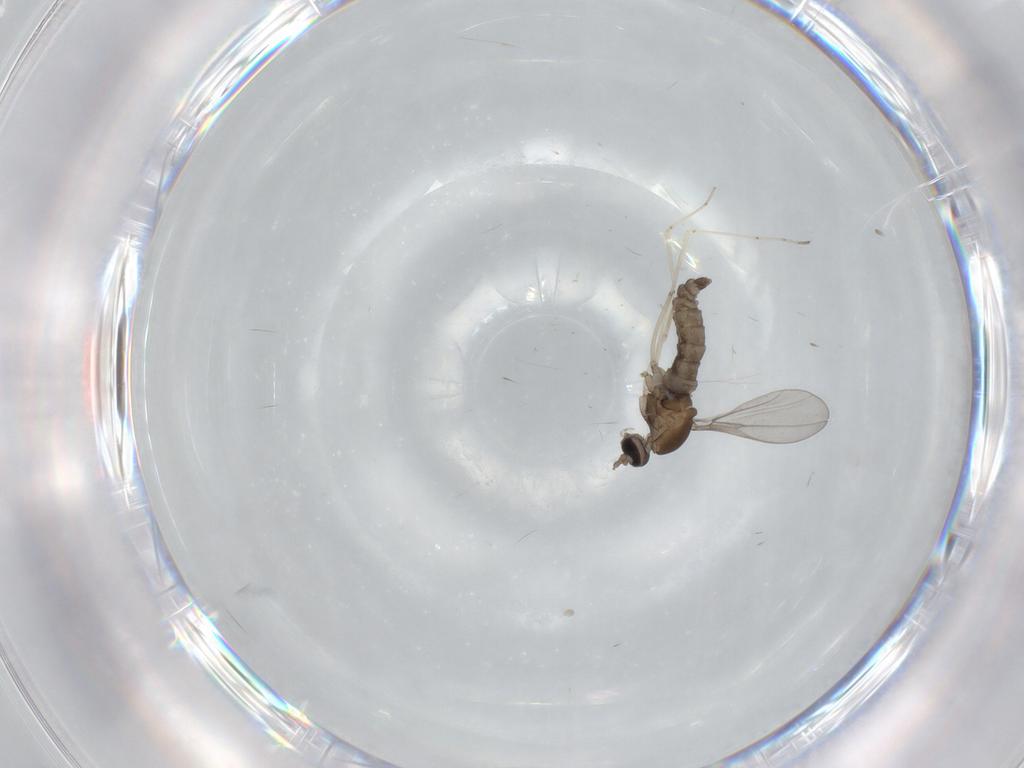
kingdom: Animalia
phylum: Arthropoda
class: Insecta
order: Diptera
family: Cecidomyiidae
